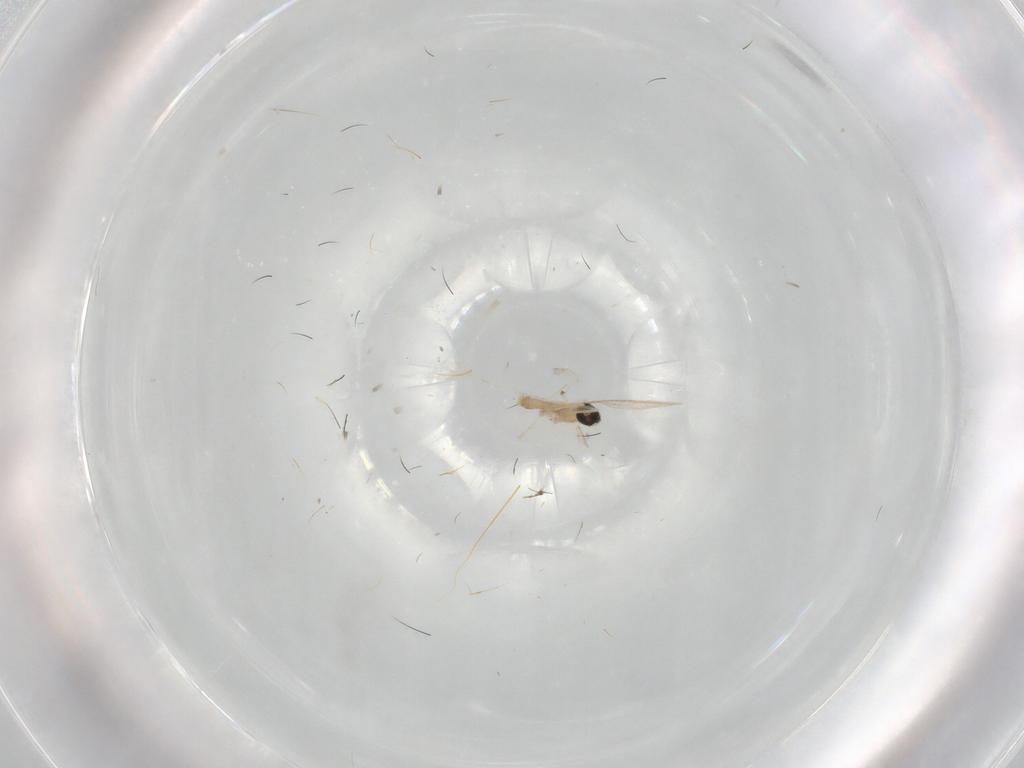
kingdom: Animalia
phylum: Arthropoda
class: Insecta
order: Diptera
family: Cecidomyiidae
